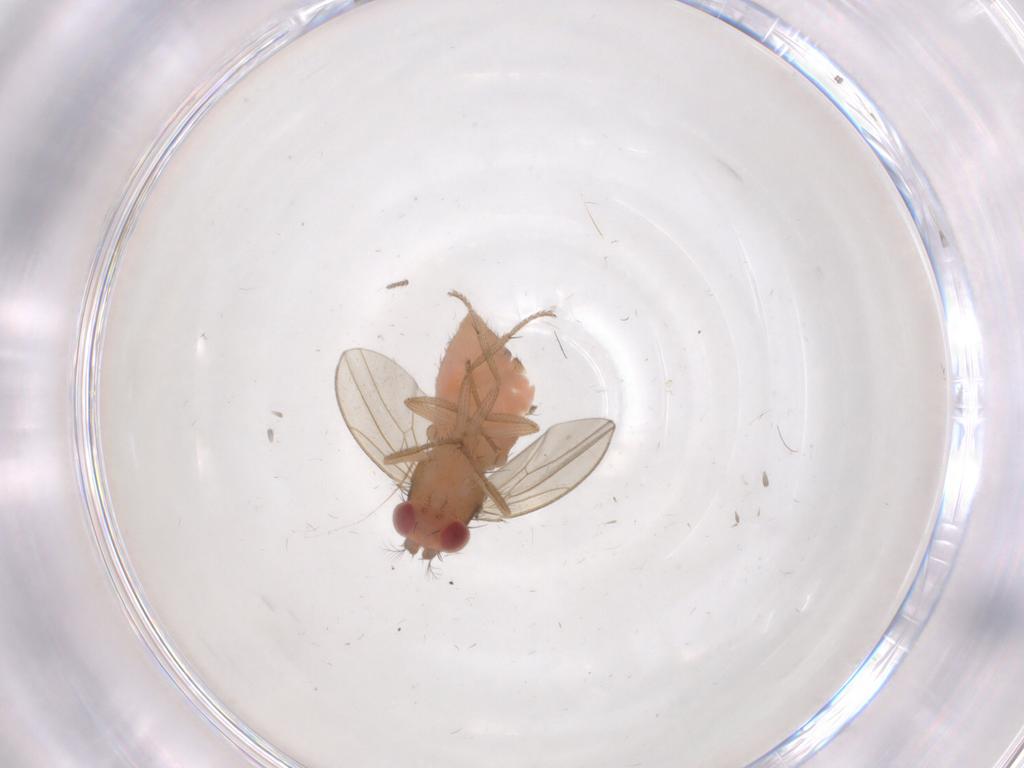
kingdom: Animalia
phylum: Arthropoda
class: Insecta
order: Diptera
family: Drosophilidae
